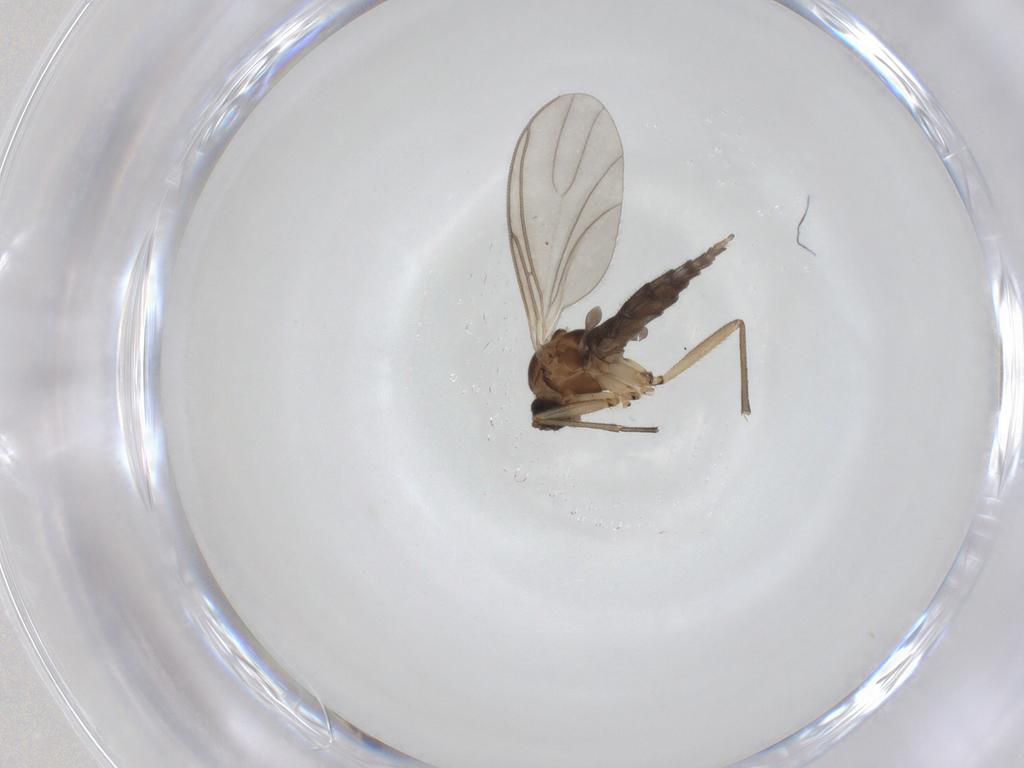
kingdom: Animalia
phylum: Arthropoda
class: Insecta
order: Diptera
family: Sciaridae
